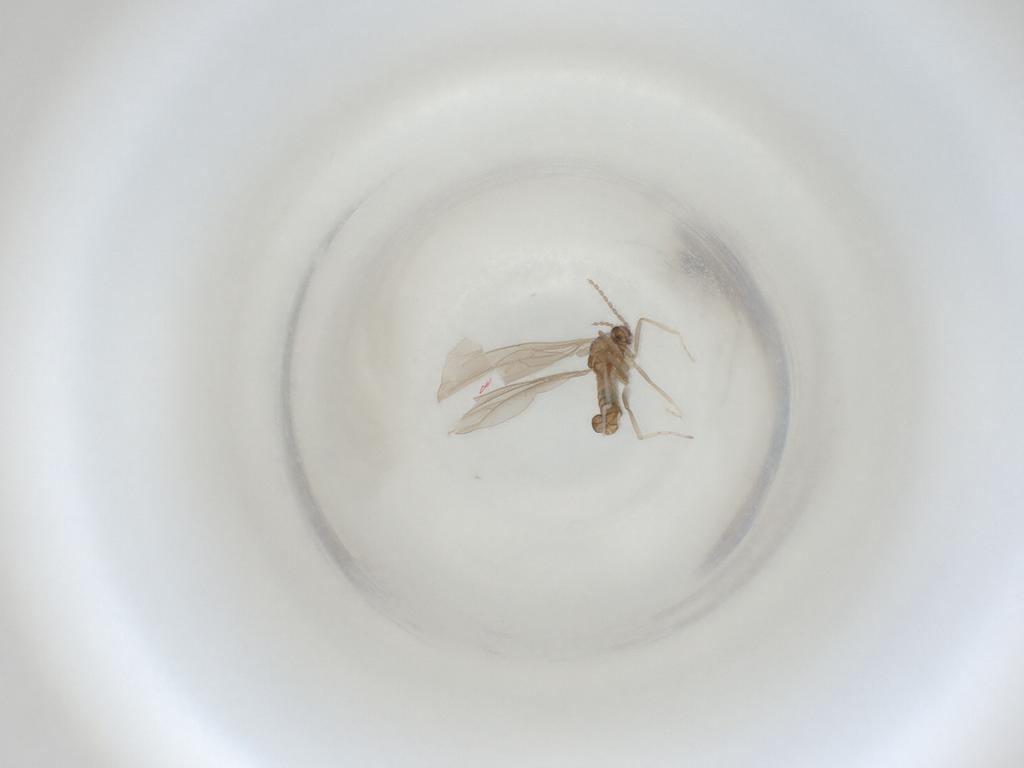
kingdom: Animalia
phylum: Arthropoda
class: Insecta
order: Diptera
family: Cecidomyiidae
